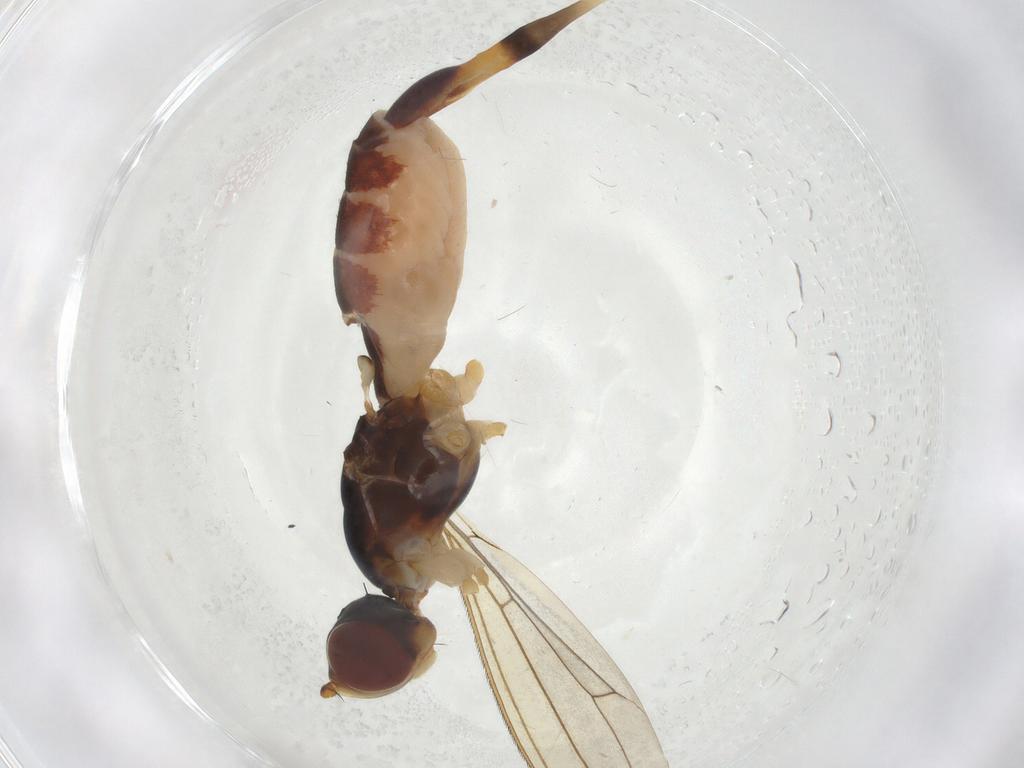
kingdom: Animalia
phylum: Arthropoda
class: Insecta
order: Diptera
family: Micropezidae
